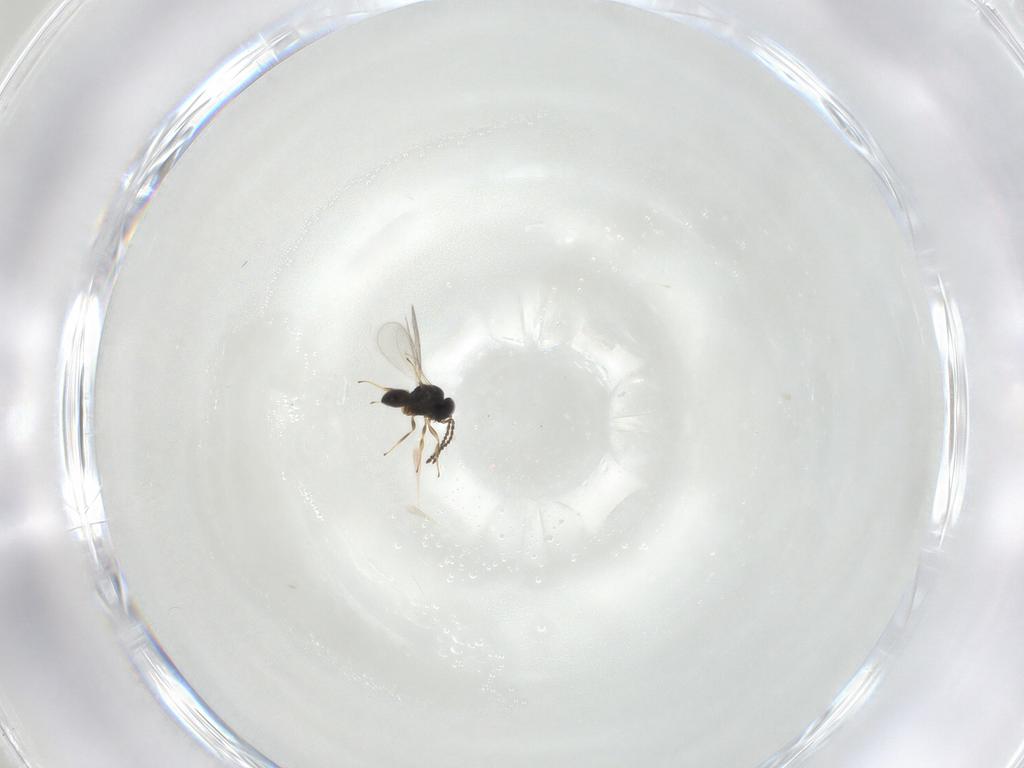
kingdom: Animalia
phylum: Arthropoda
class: Insecta
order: Hymenoptera
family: Scelionidae
